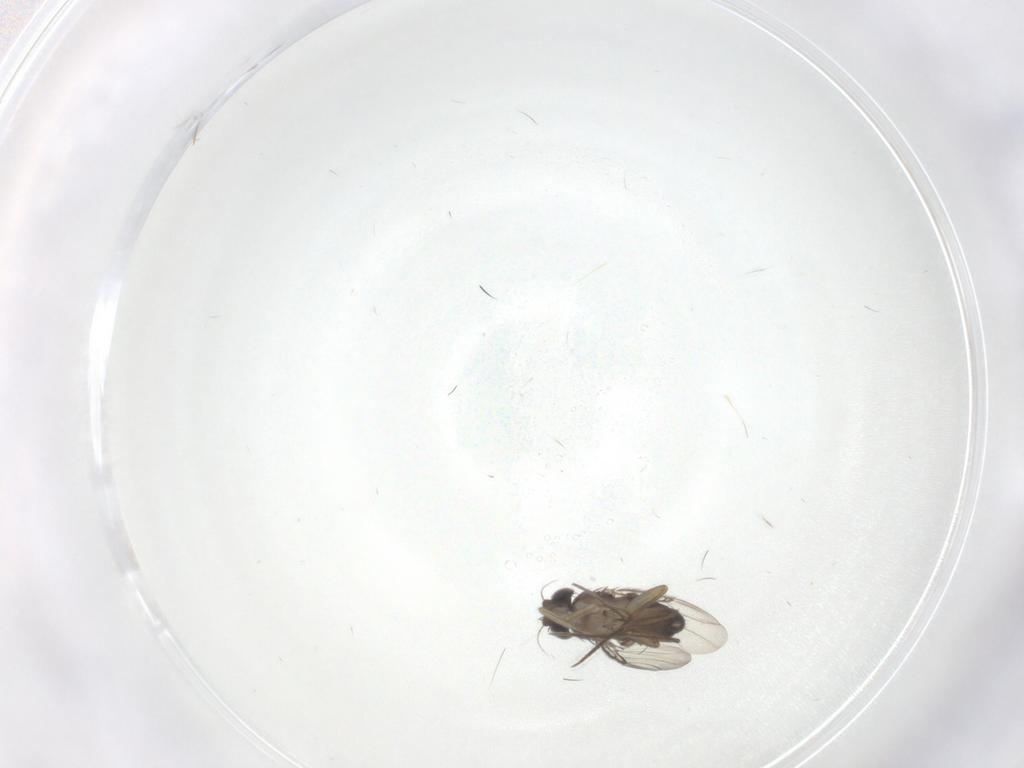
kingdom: Animalia
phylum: Arthropoda
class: Insecta
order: Diptera
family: Phoridae
